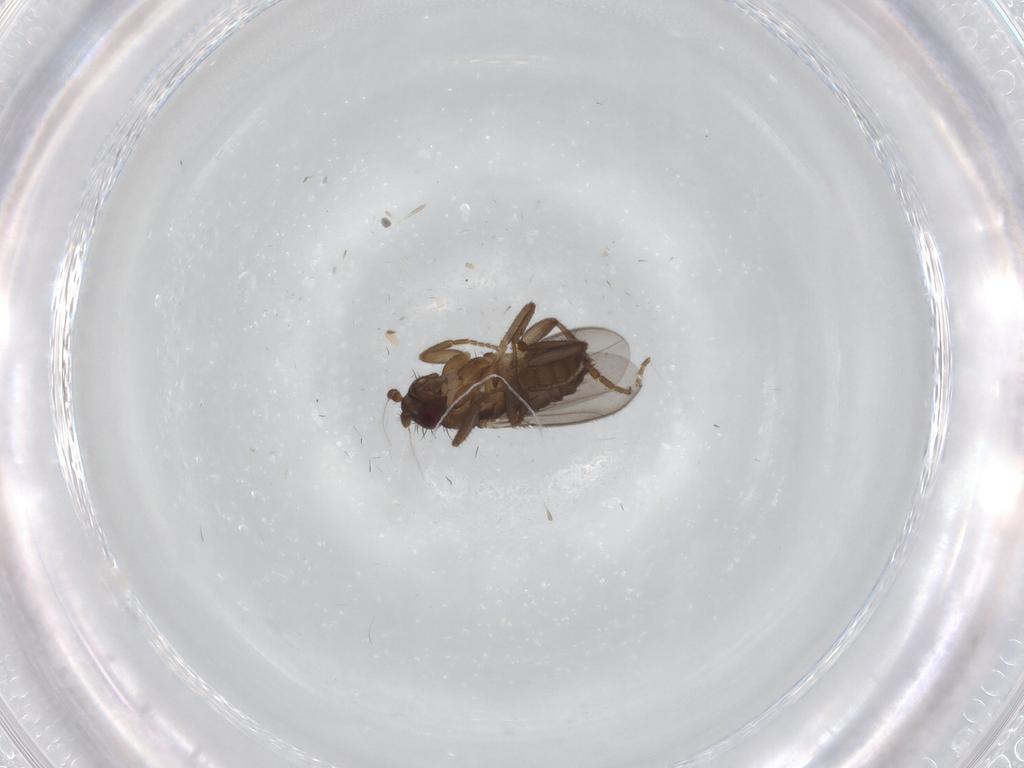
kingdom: Animalia
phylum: Arthropoda
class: Insecta
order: Diptera
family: Sphaeroceridae
